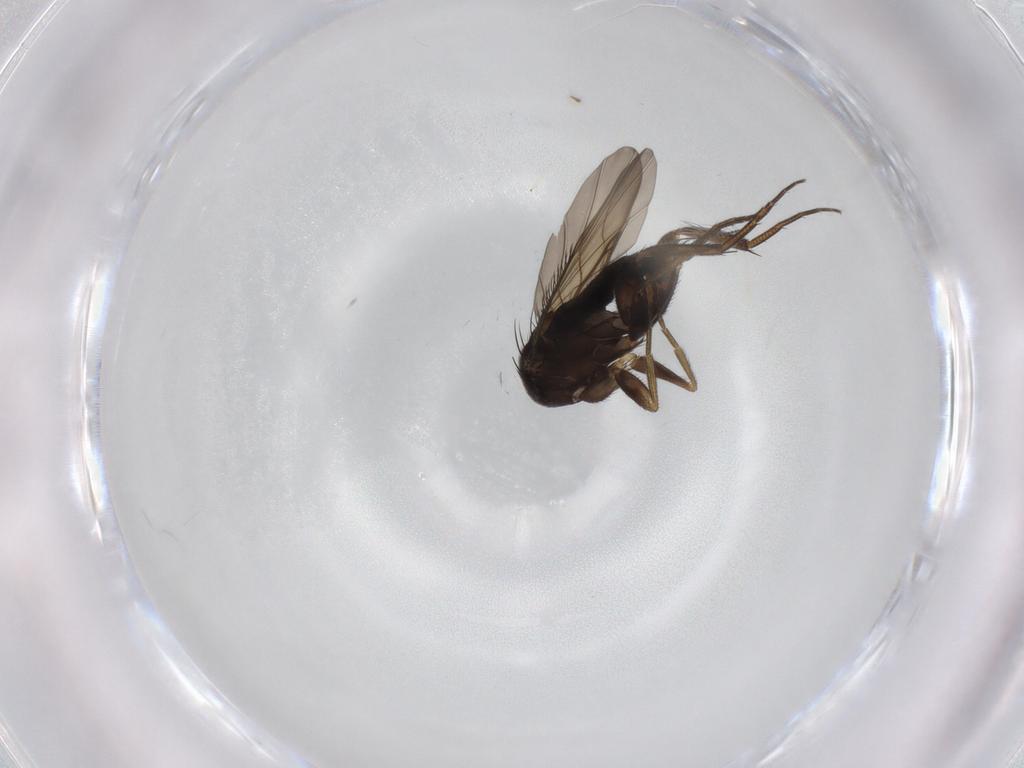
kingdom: Animalia
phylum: Arthropoda
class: Insecta
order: Diptera
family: Phoridae
